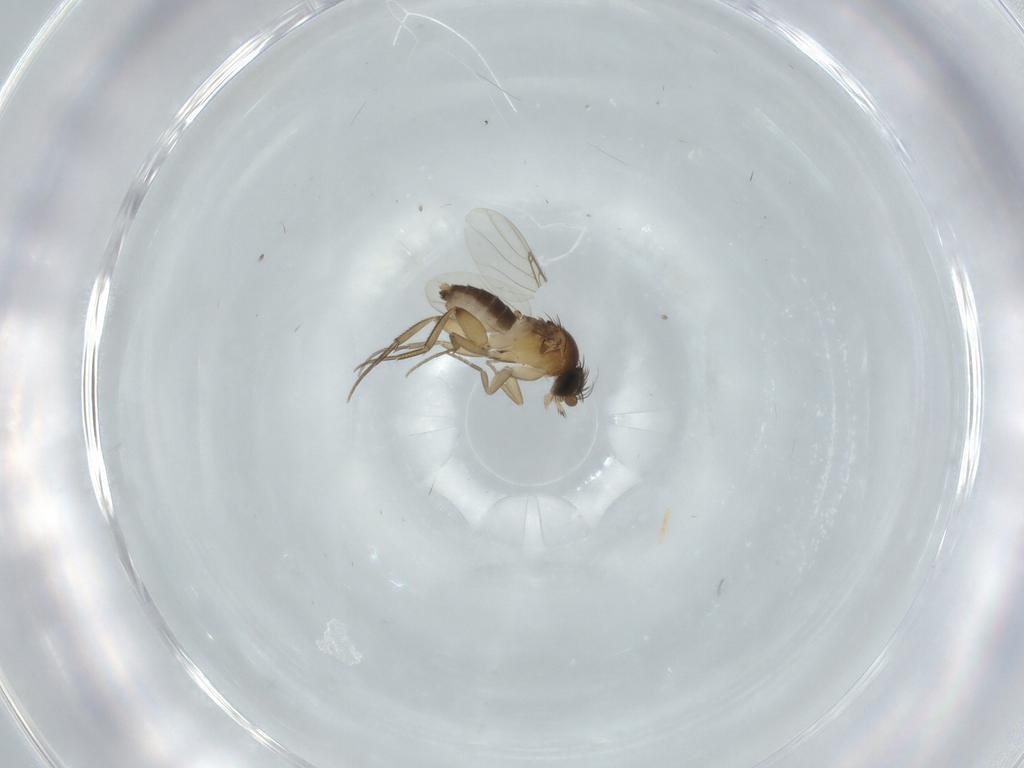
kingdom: Animalia
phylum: Arthropoda
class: Insecta
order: Diptera
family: Phoridae
